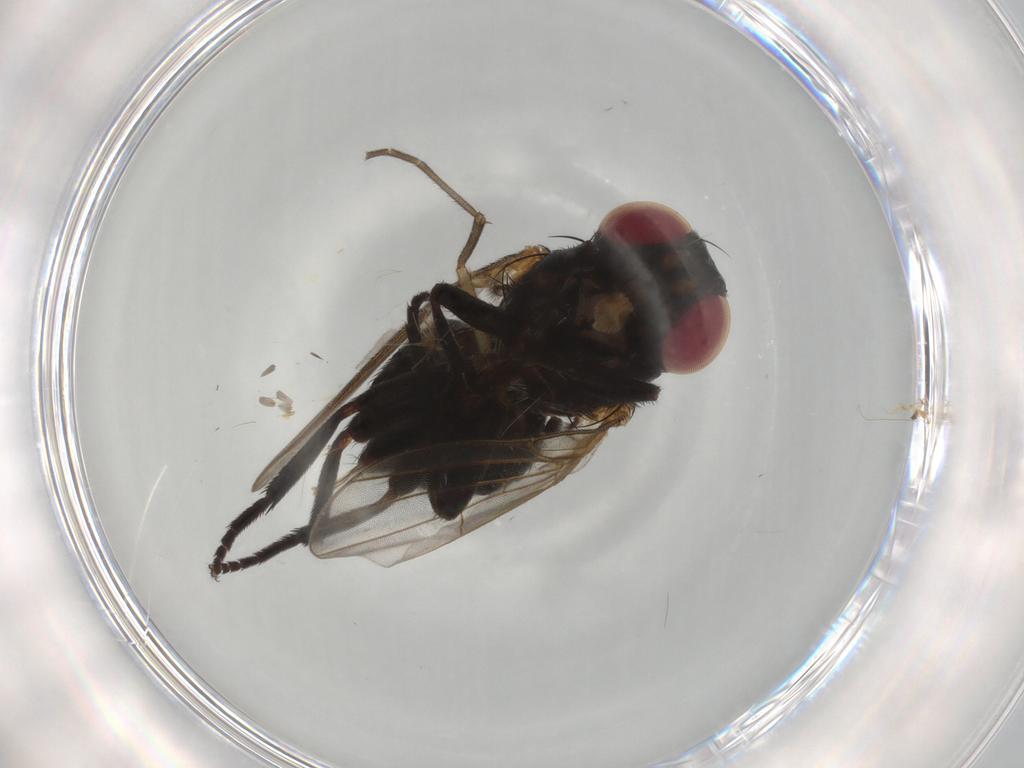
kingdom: Animalia
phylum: Arthropoda
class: Insecta
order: Diptera
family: Agromyzidae
